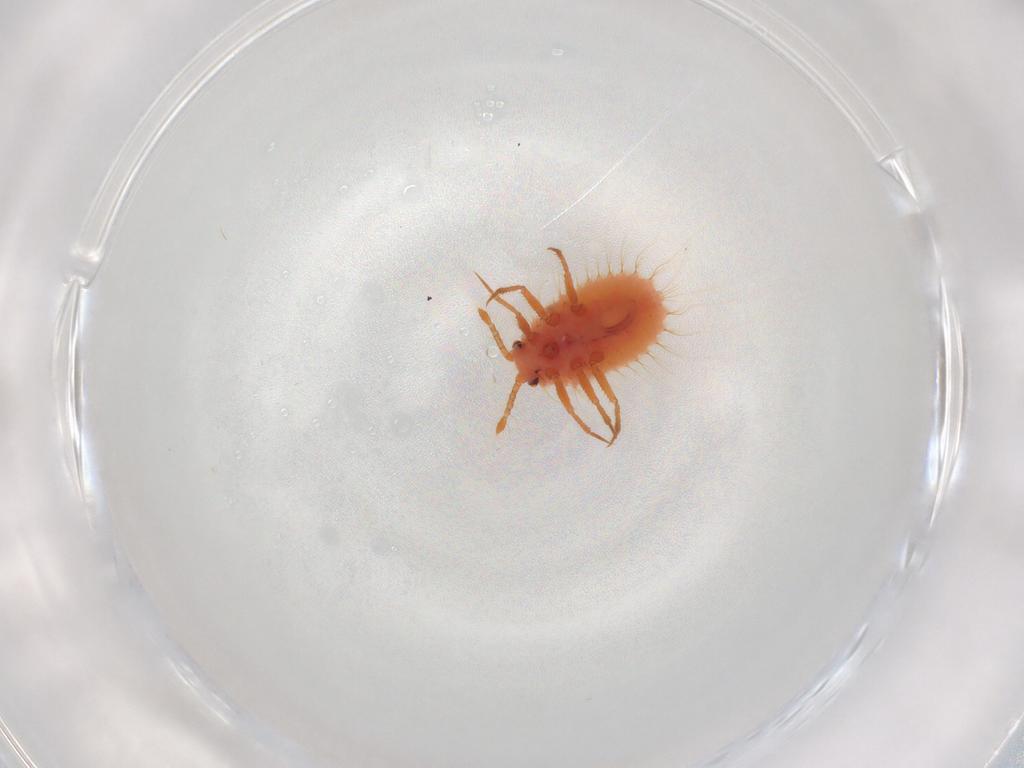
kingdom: Animalia
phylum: Arthropoda
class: Insecta
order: Hemiptera
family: Coccoidea_incertae_sedis
